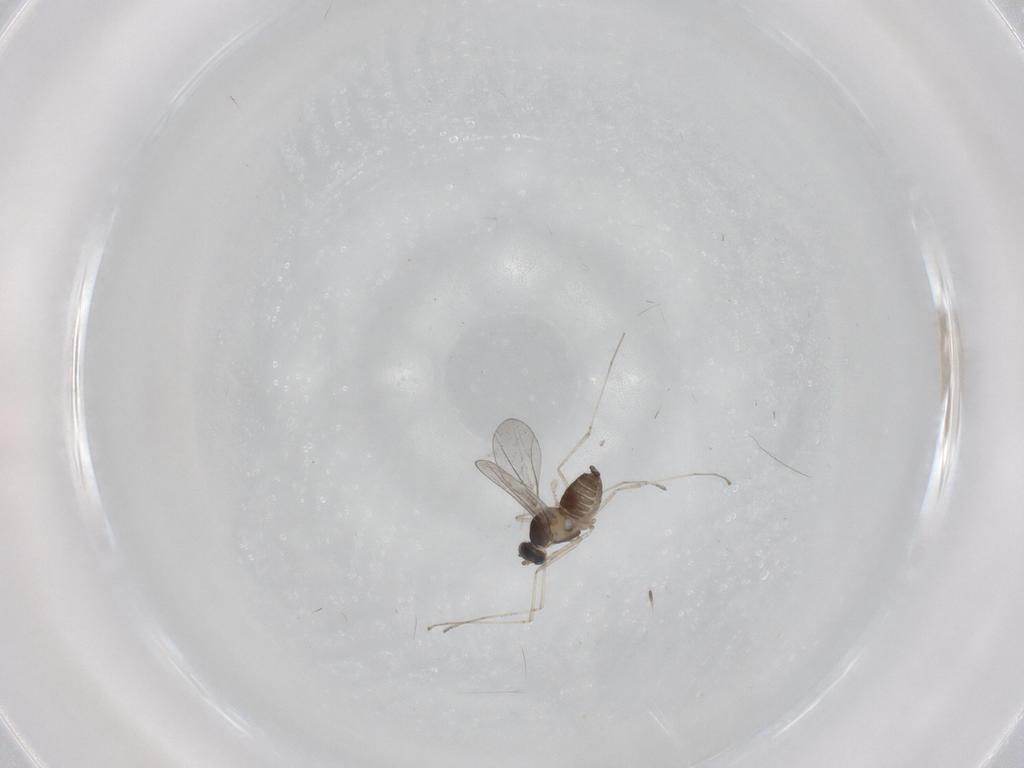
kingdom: Animalia
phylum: Arthropoda
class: Insecta
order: Diptera
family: Cecidomyiidae
